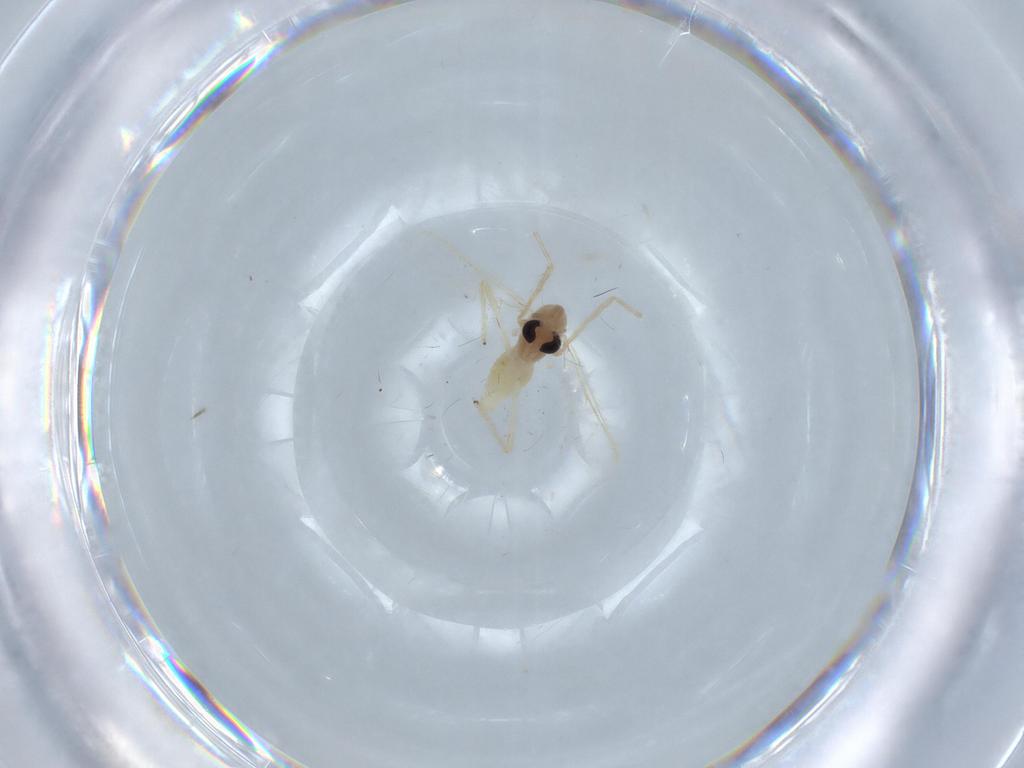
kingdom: Animalia
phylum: Arthropoda
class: Insecta
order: Diptera
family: Chironomidae
